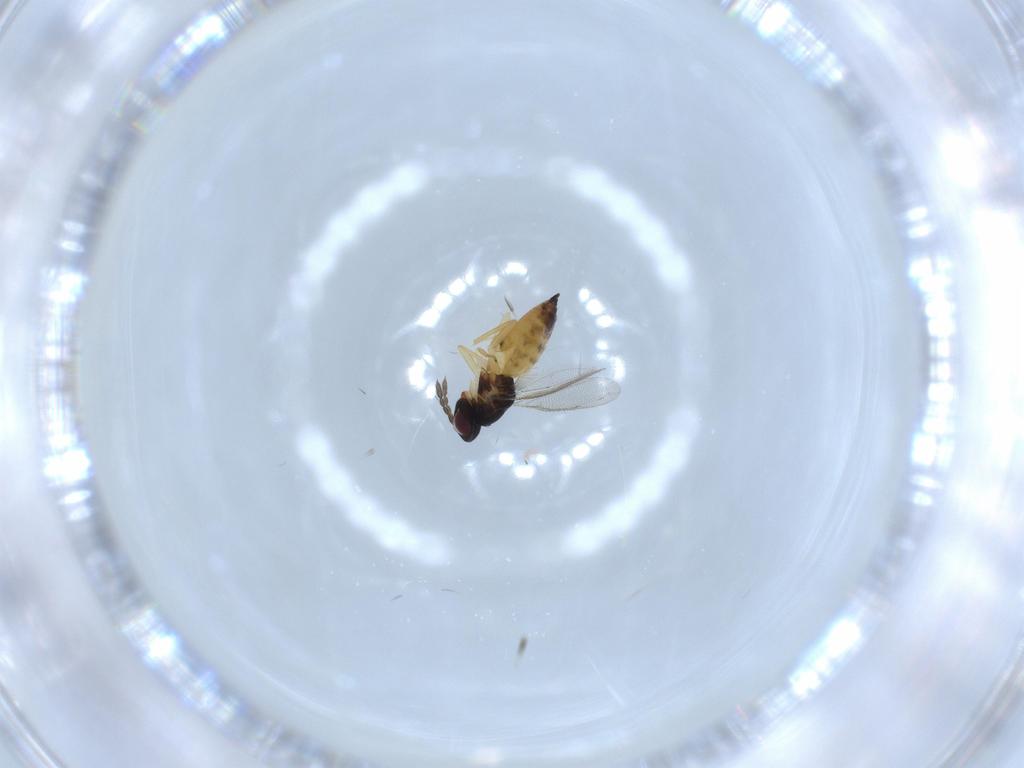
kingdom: Animalia
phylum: Arthropoda
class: Insecta
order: Hymenoptera
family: Eulophidae
